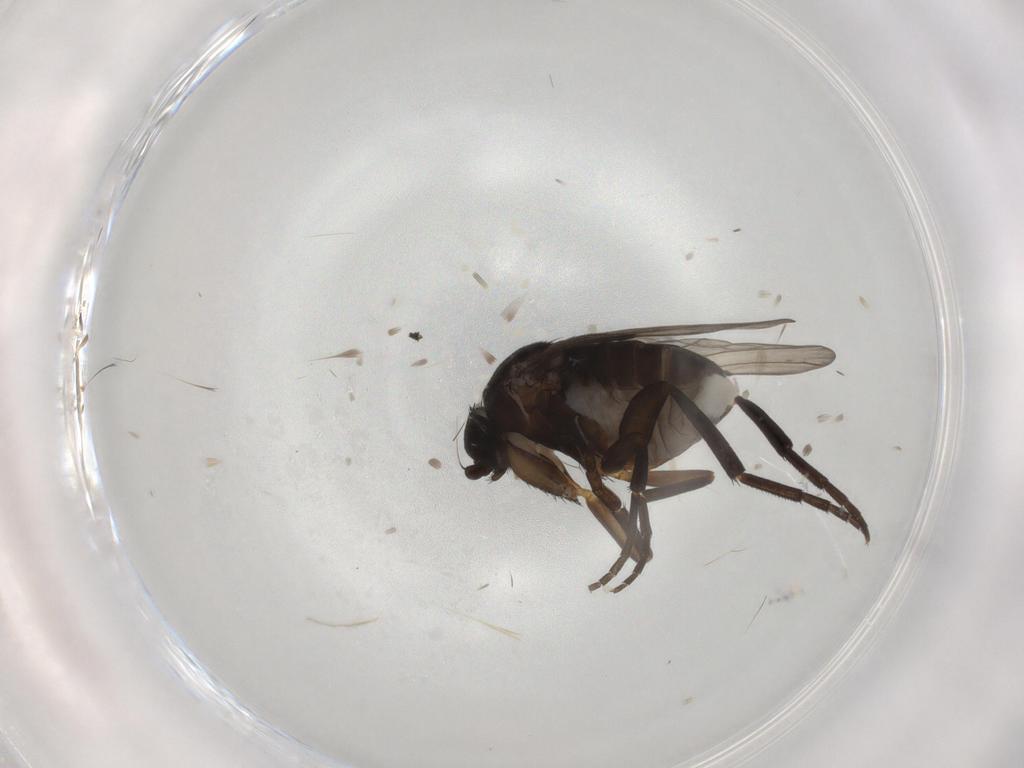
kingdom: Animalia
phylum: Arthropoda
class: Insecta
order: Diptera
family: Phoridae
